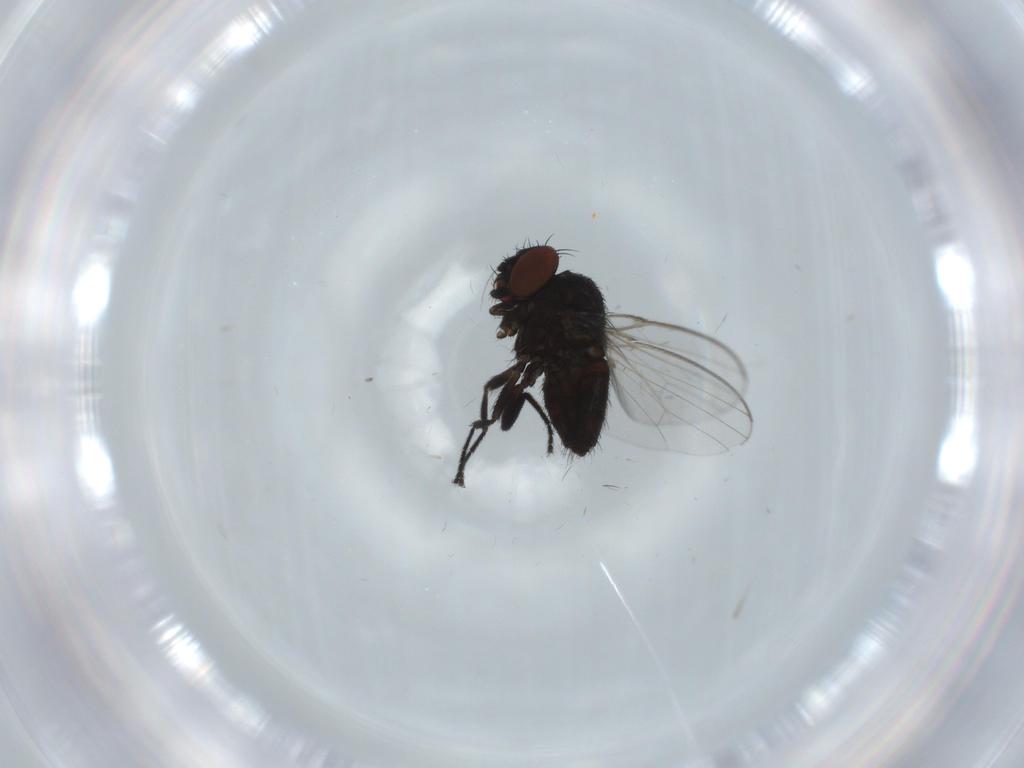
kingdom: Animalia
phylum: Arthropoda
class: Insecta
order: Diptera
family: Milichiidae
